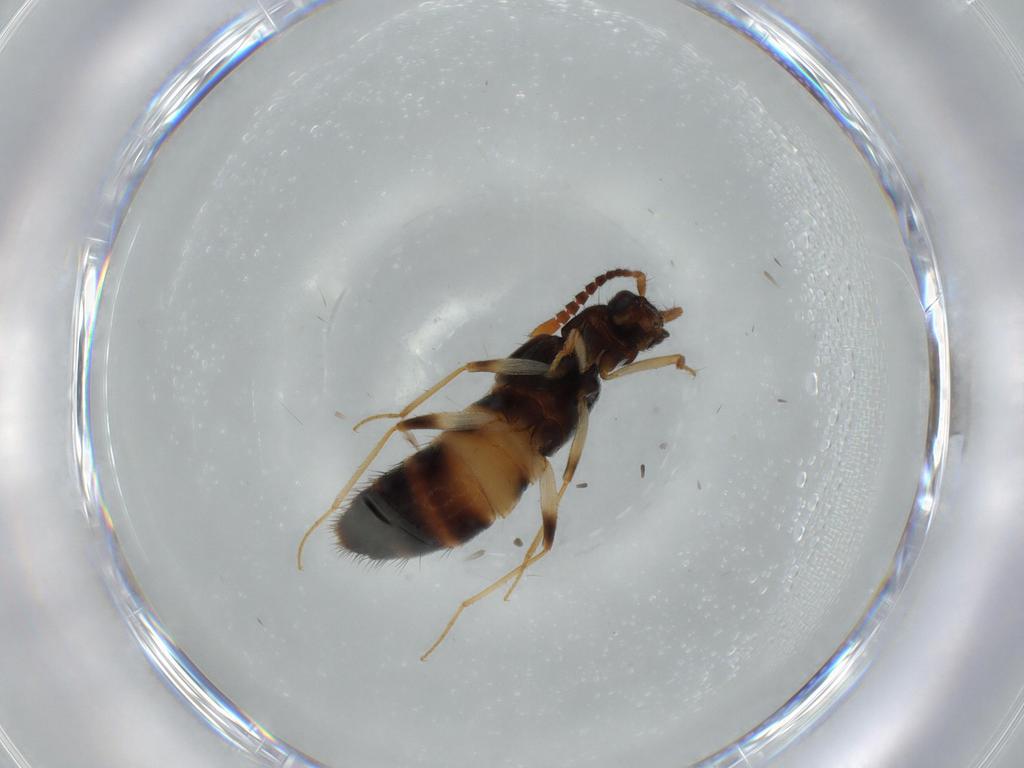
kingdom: Animalia
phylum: Arthropoda
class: Insecta
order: Coleoptera
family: Staphylinidae
